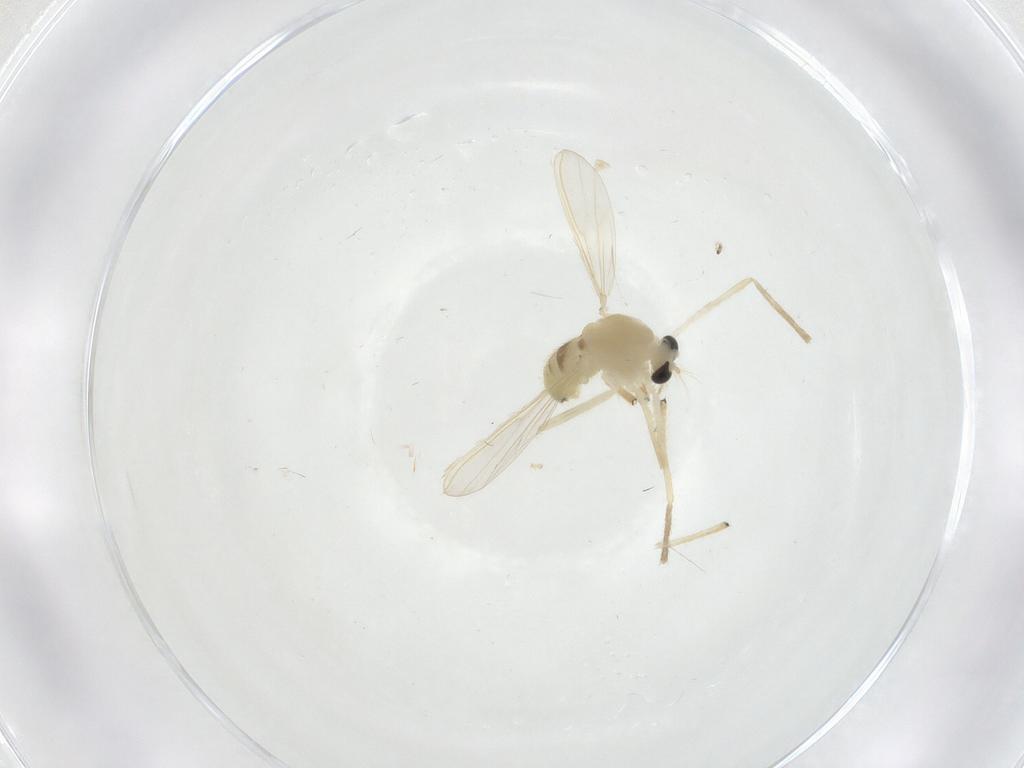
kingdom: Animalia
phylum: Arthropoda
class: Insecta
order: Diptera
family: Chironomidae
